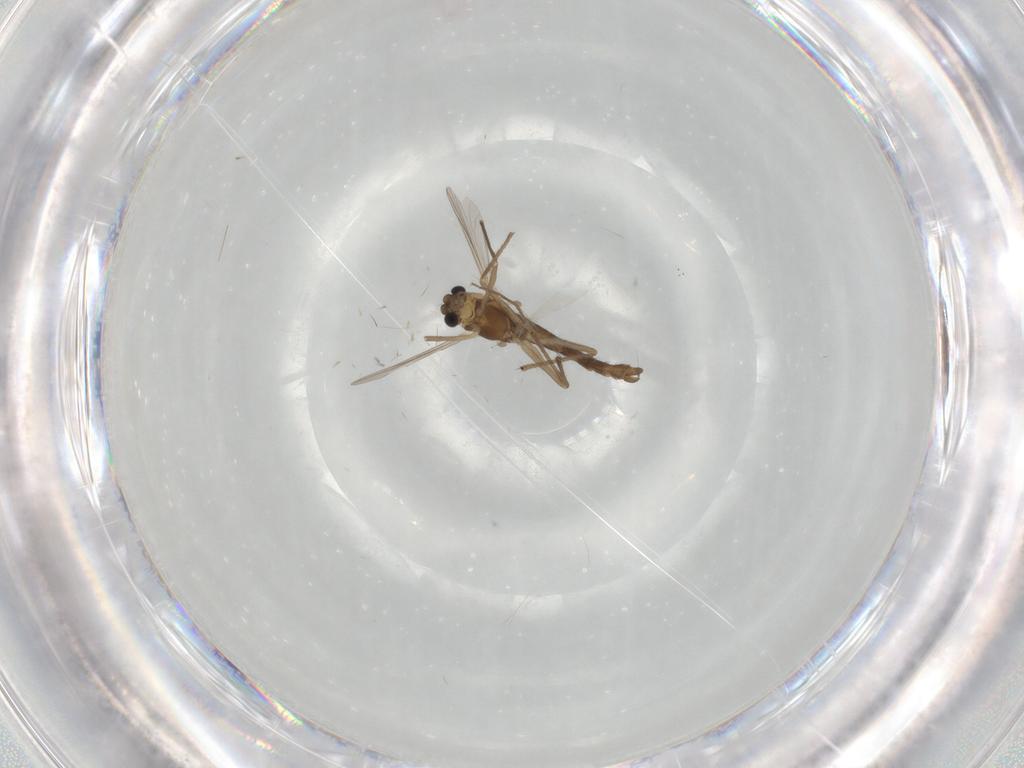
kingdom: Animalia
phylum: Arthropoda
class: Insecta
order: Diptera
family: Chironomidae
